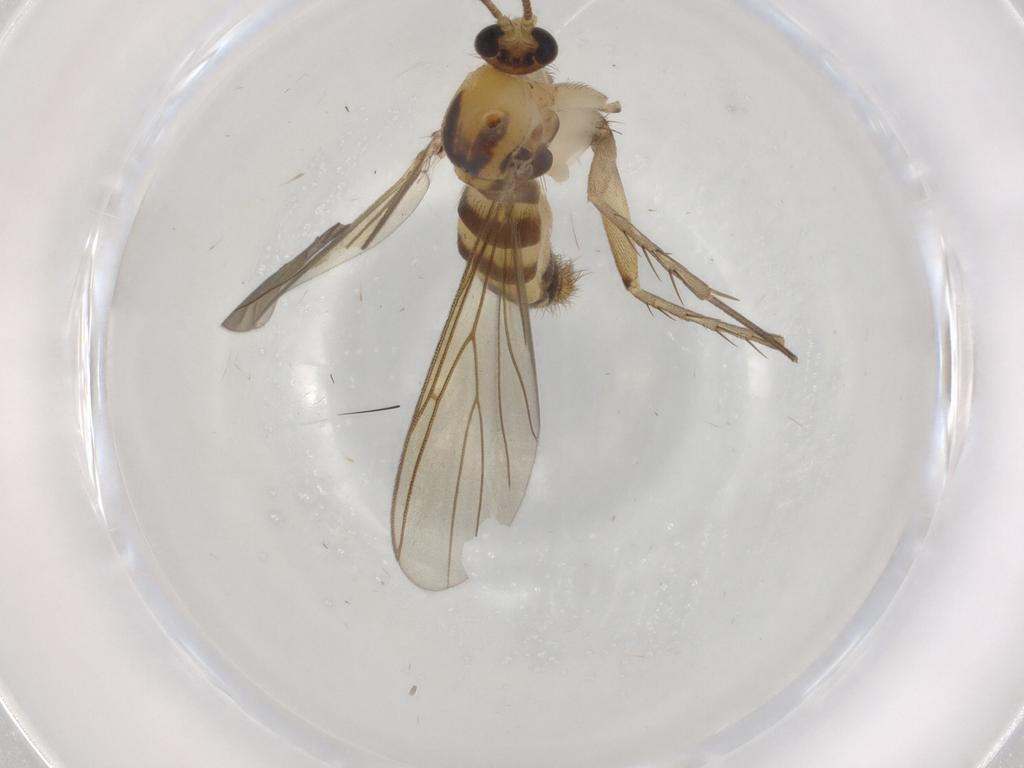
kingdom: Animalia
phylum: Arthropoda
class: Insecta
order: Diptera
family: Mycetophilidae
